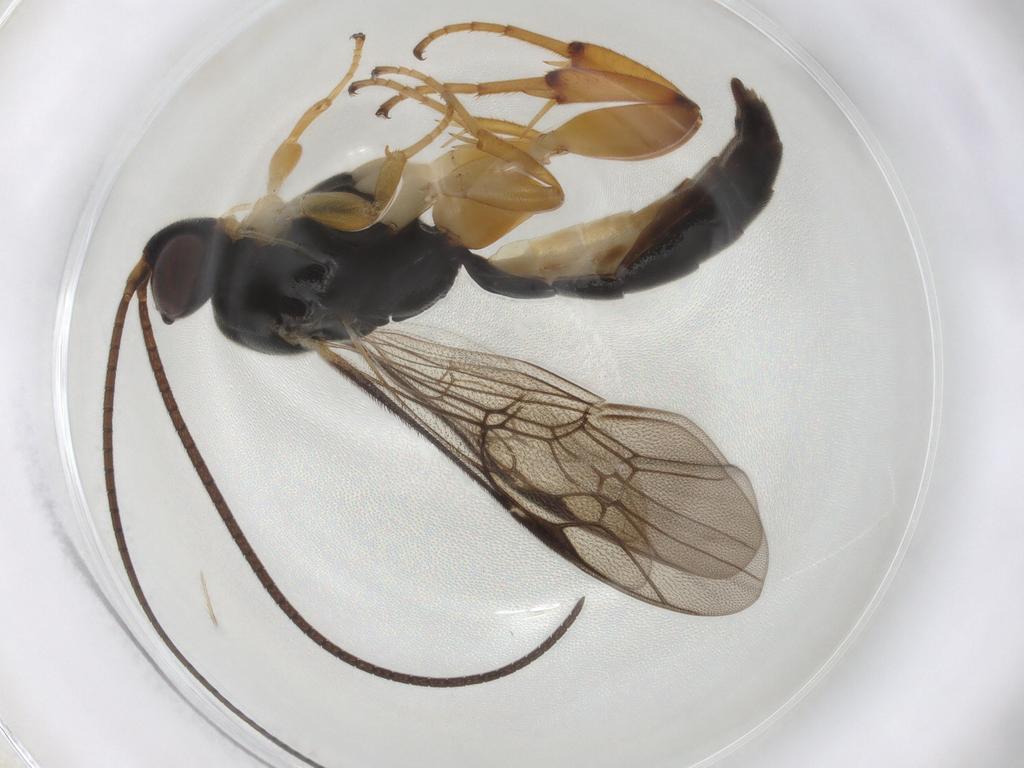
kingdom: Animalia
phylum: Arthropoda
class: Insecta
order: Hymenoptera
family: Ichneumonidae
